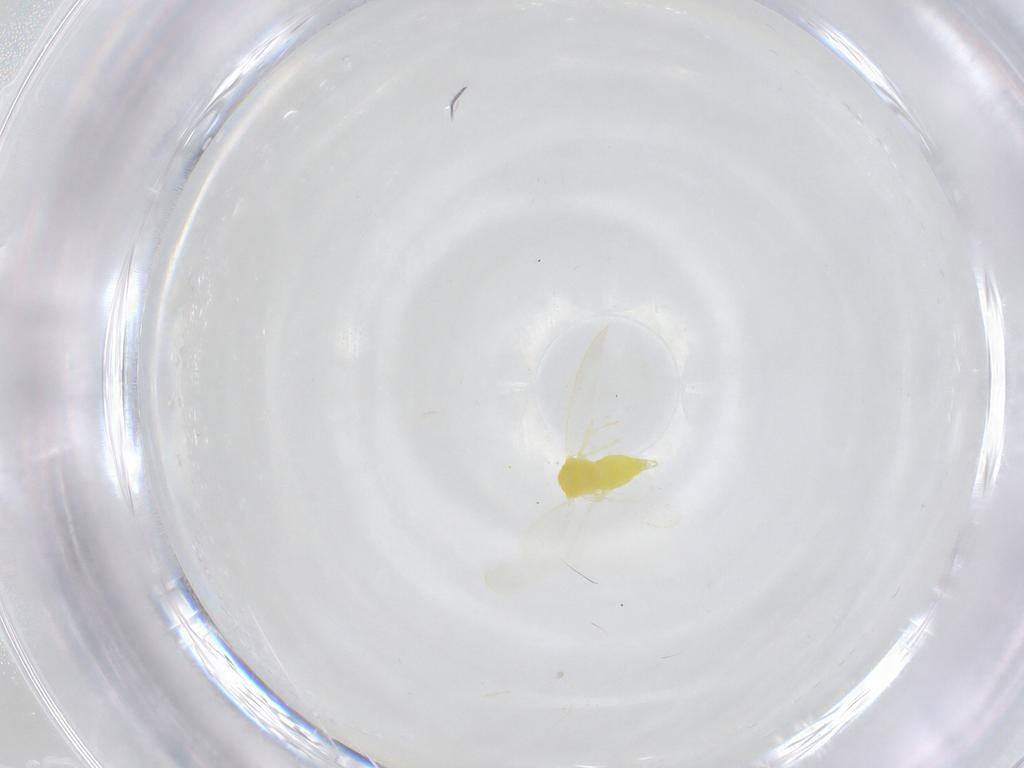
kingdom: Animalia
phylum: Arthropoda
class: Insecta
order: Hemiptera
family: Aleyrodidae
